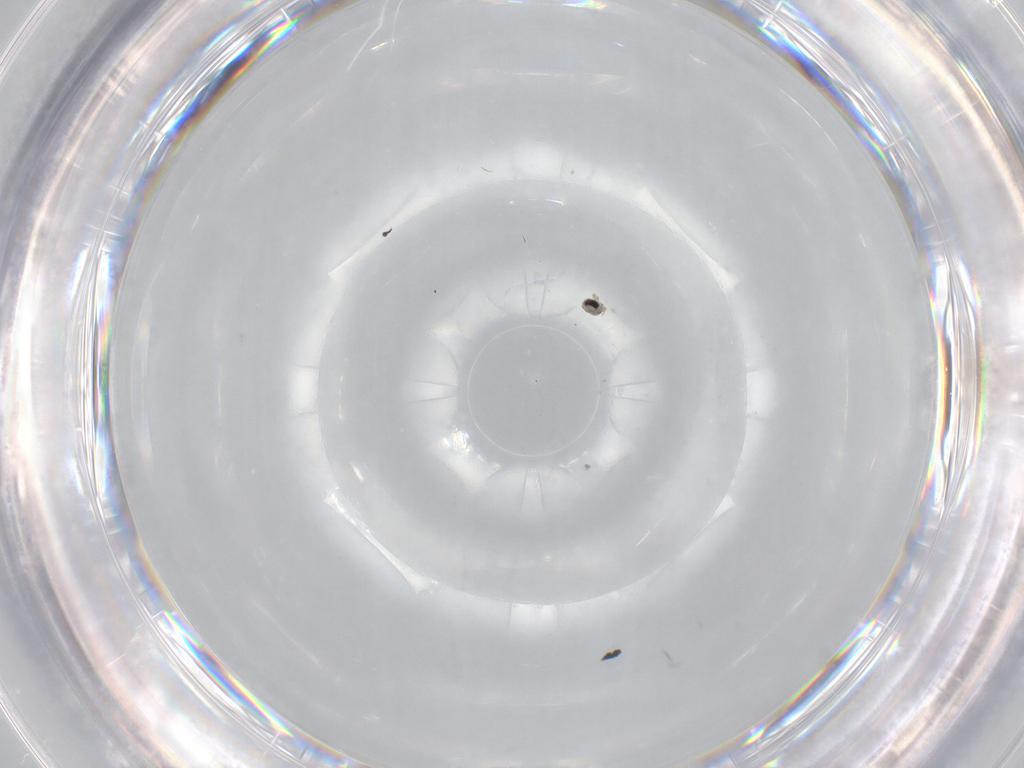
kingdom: Animalia
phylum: Arthropoda
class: Insecta
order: Diptera
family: Cecidomyiidae
